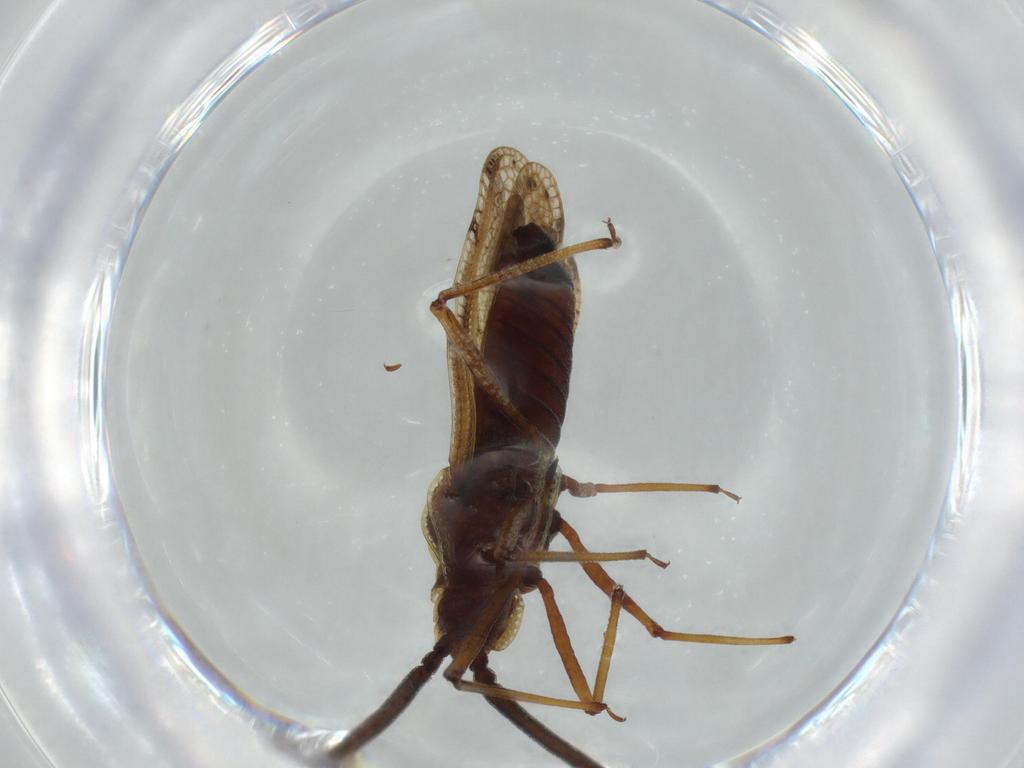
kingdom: Animalia
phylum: Arthropoda
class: Insecta
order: Hemiptera
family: Tingidae
